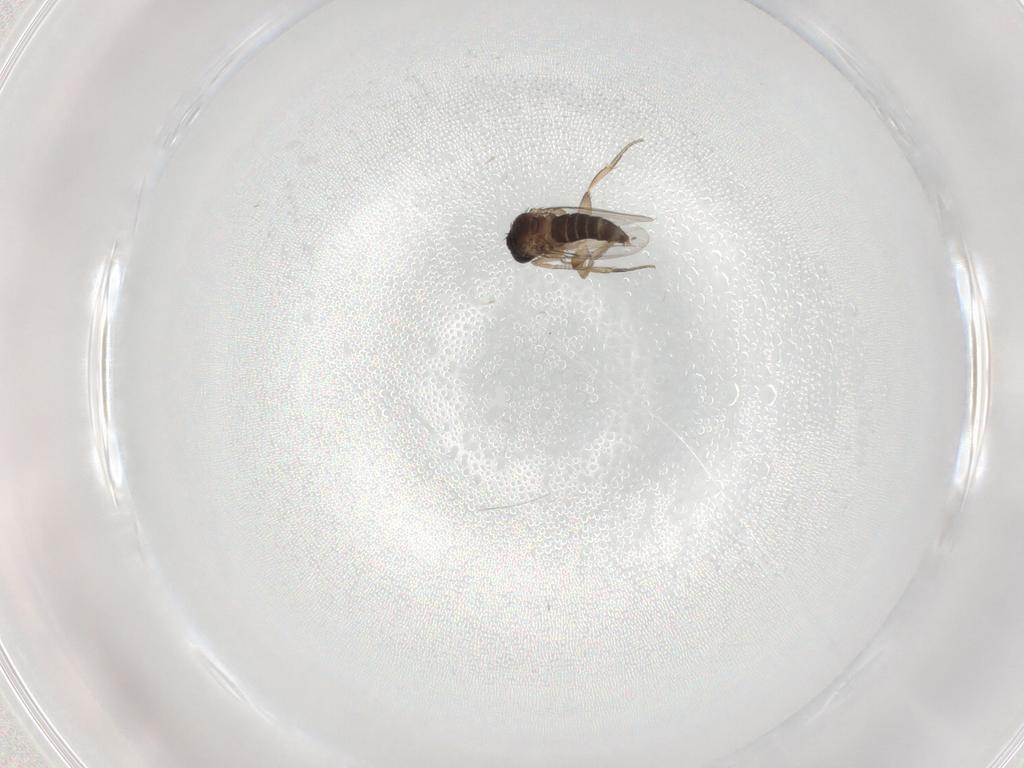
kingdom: Animalia
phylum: Arthropoda
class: Insecta
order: Diptera
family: Phoridae
